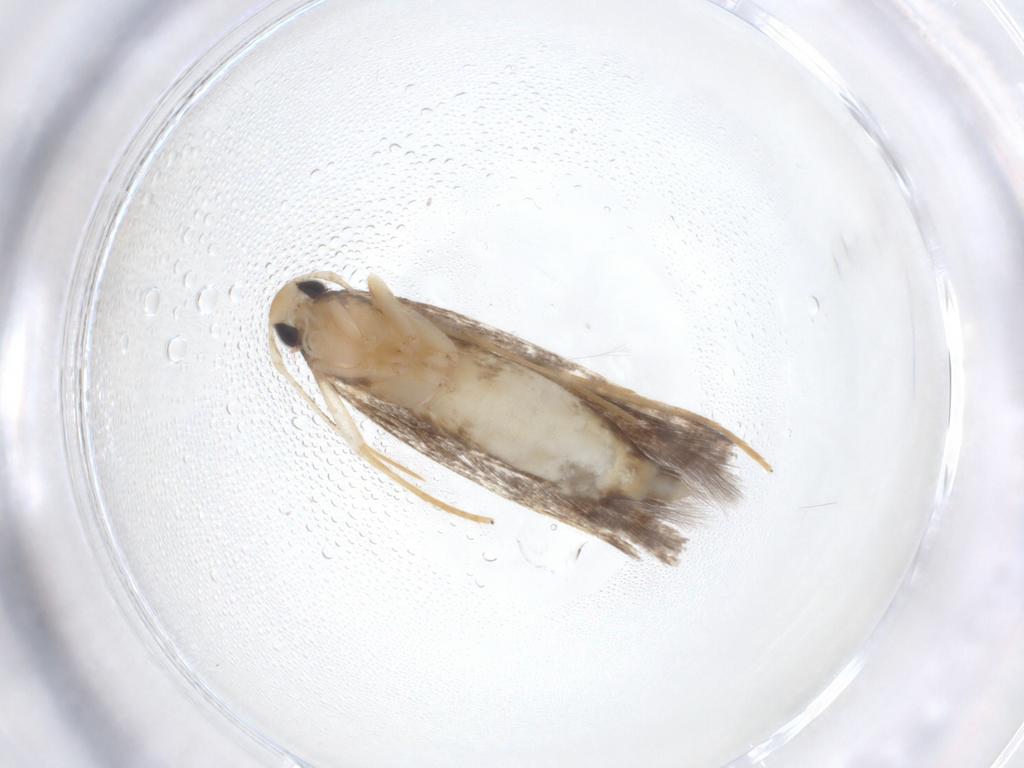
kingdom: Animalia
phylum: Arthropoda
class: Insecta
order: Lepidoptera
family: Cosmopterigidae
